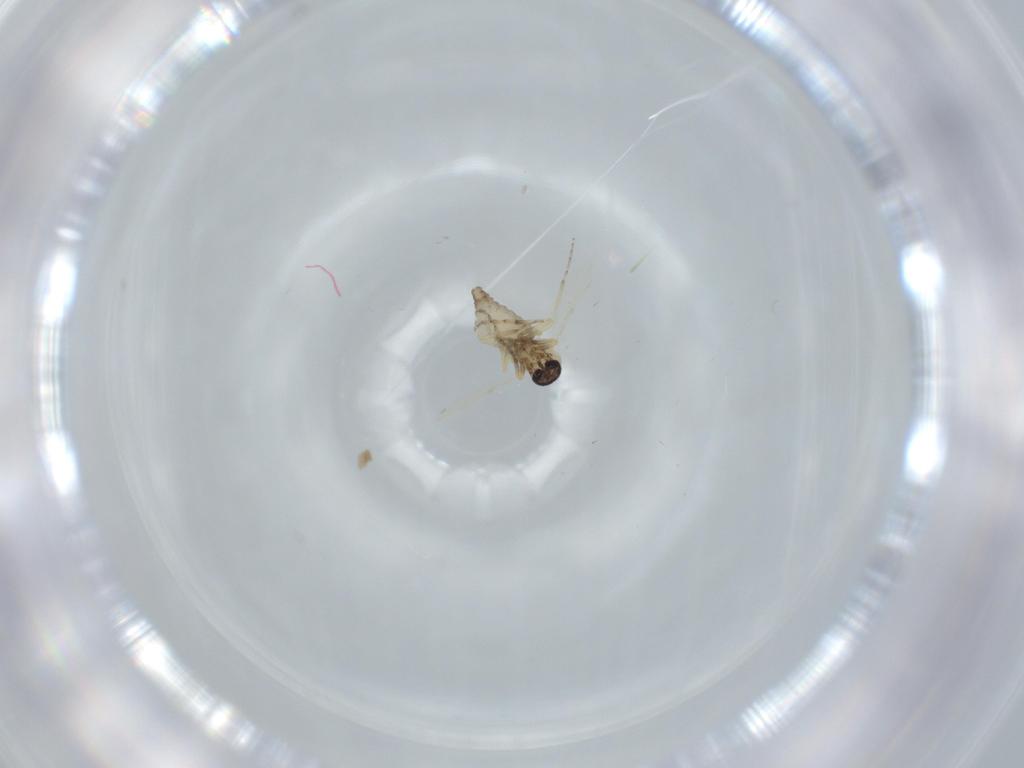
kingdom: Animalia
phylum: Arthropoda
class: Insecta
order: Diptera
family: Ceratopogonidae
